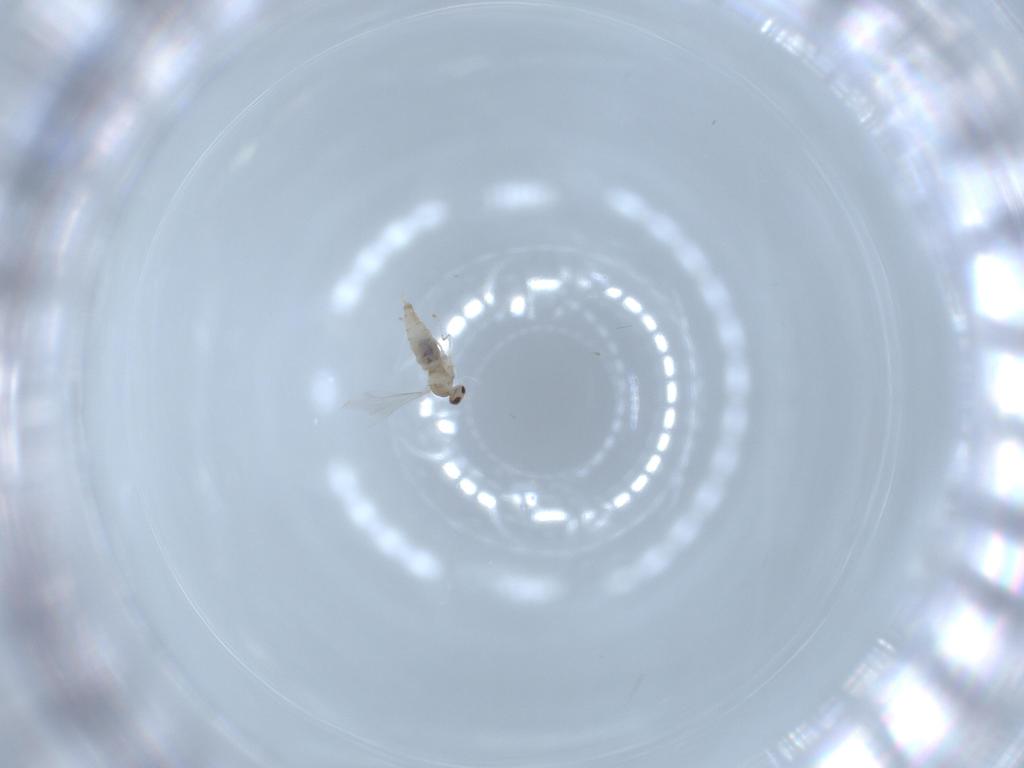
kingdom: Animalia
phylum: Arthropoda
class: Insecta
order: Diptera
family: Cecidomyiidae
